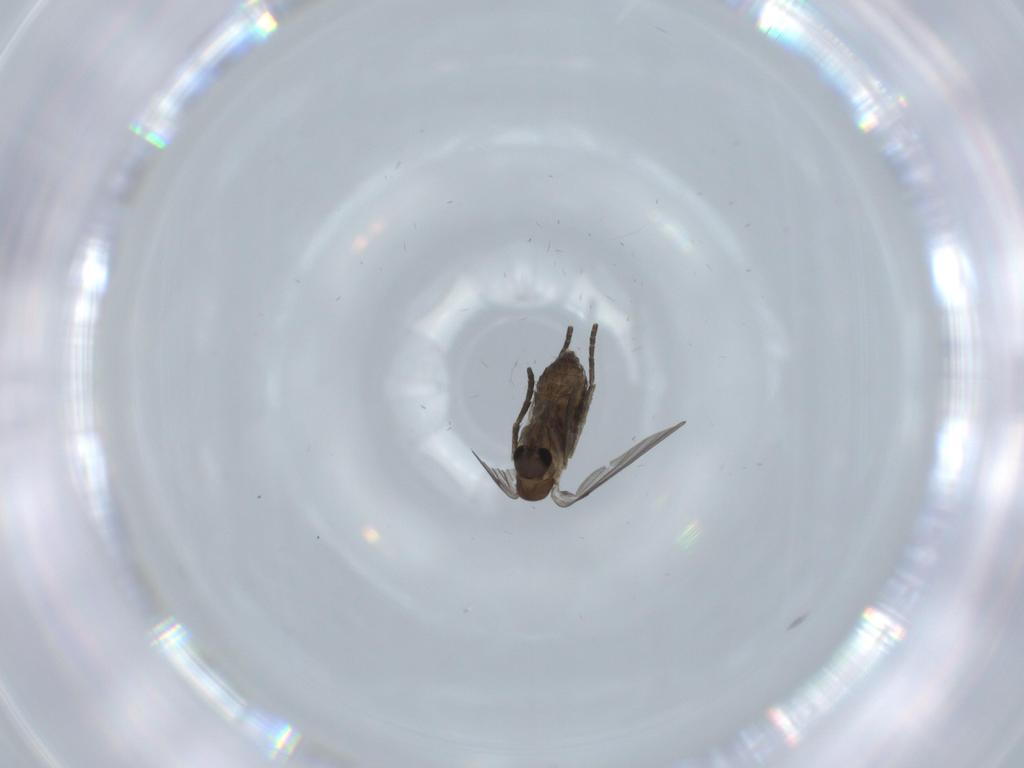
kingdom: Animalia
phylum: Arthropoda
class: Insecta
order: Diptera
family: Psychodidae
